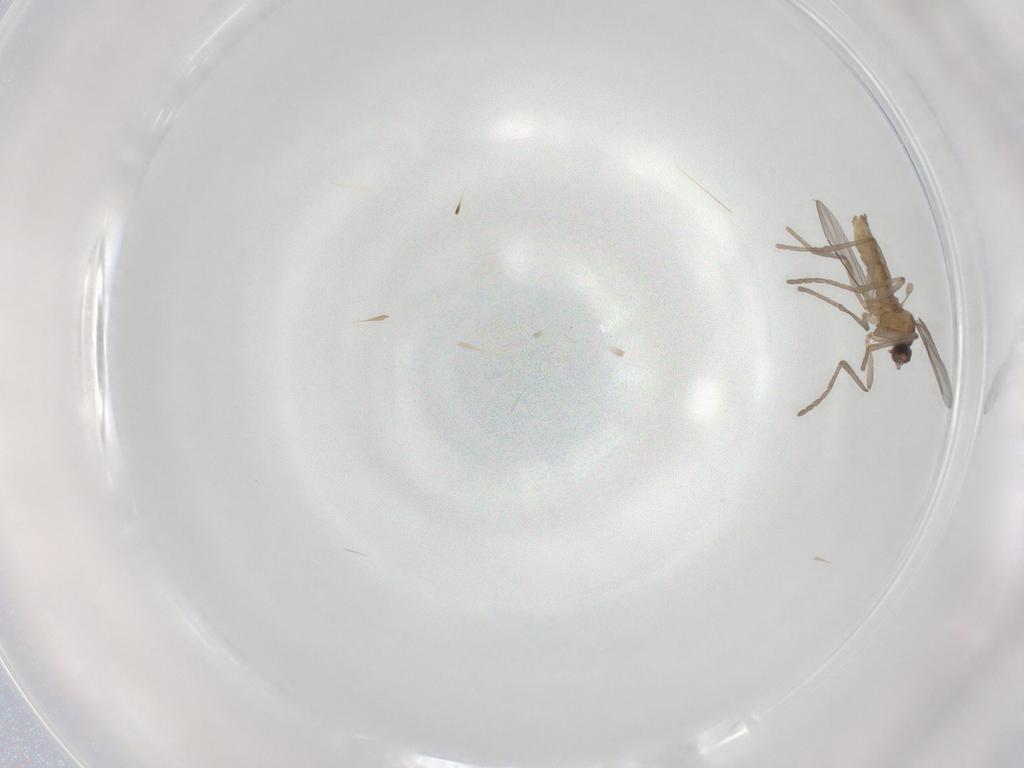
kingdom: Animalia
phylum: Arthropoda
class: Insecta
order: Diptera
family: Cecidomyiidae
